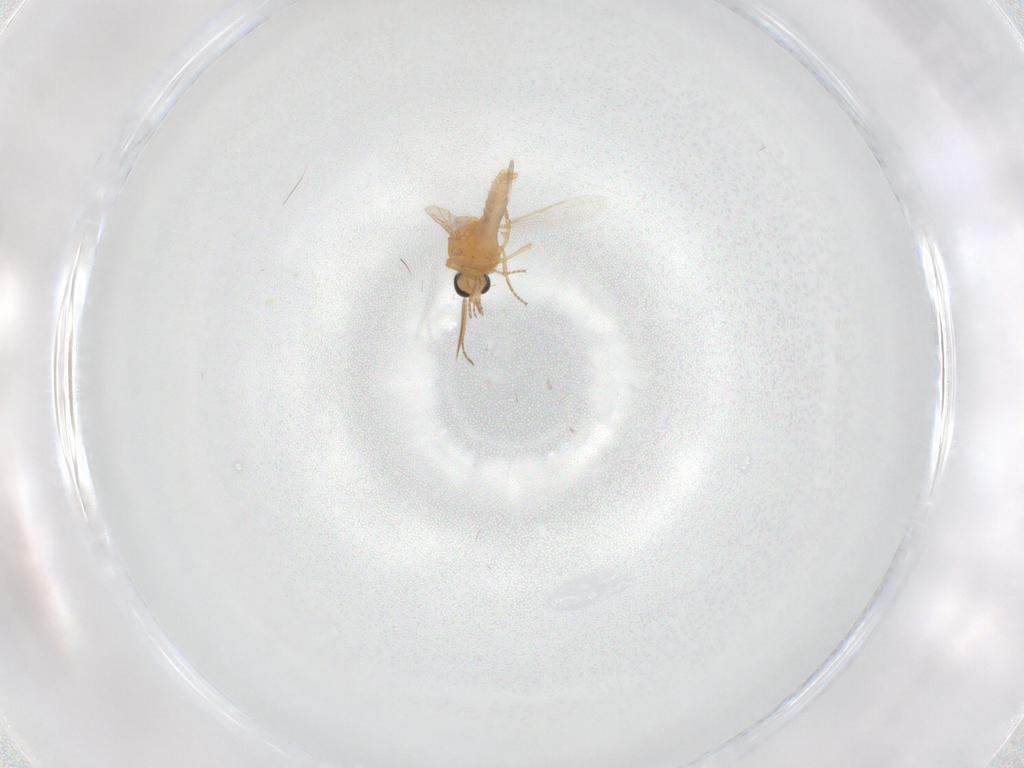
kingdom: Animalia
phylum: Arthropoda
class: Insecta
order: Diptera
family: Ceratopogonidae
